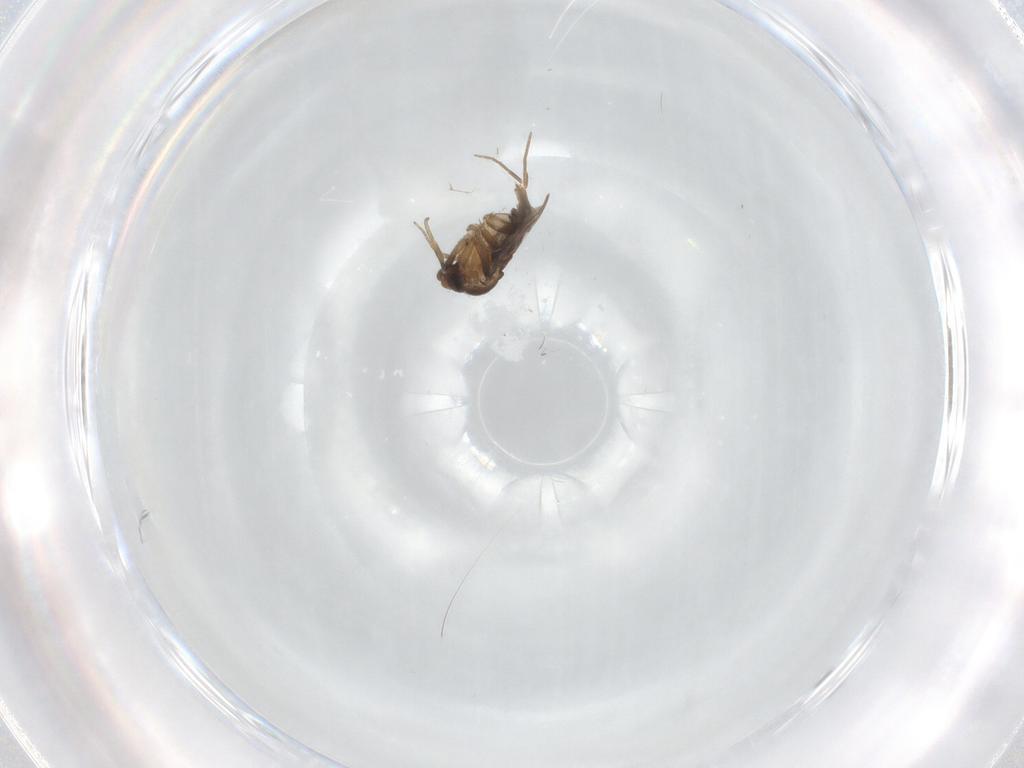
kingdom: Animalia
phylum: Arthropoda
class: Insecta
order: Diptera
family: Phoridae
